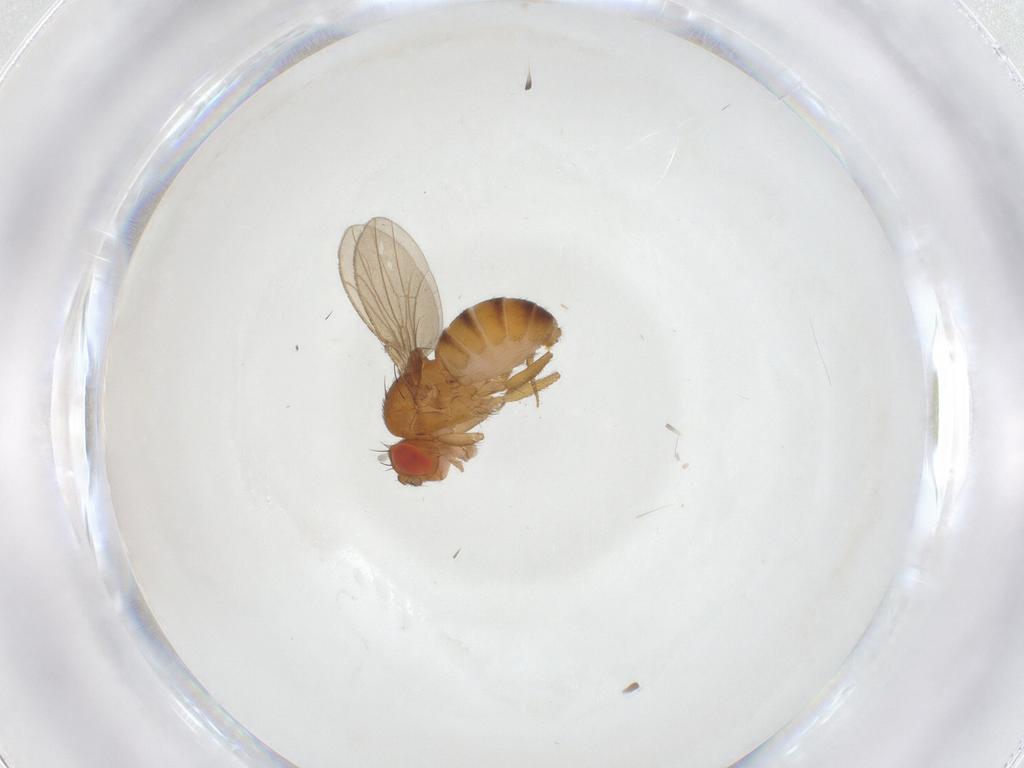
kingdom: Animalia
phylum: Arthropoda
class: Insecta
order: Diptera
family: Drosophilidae
